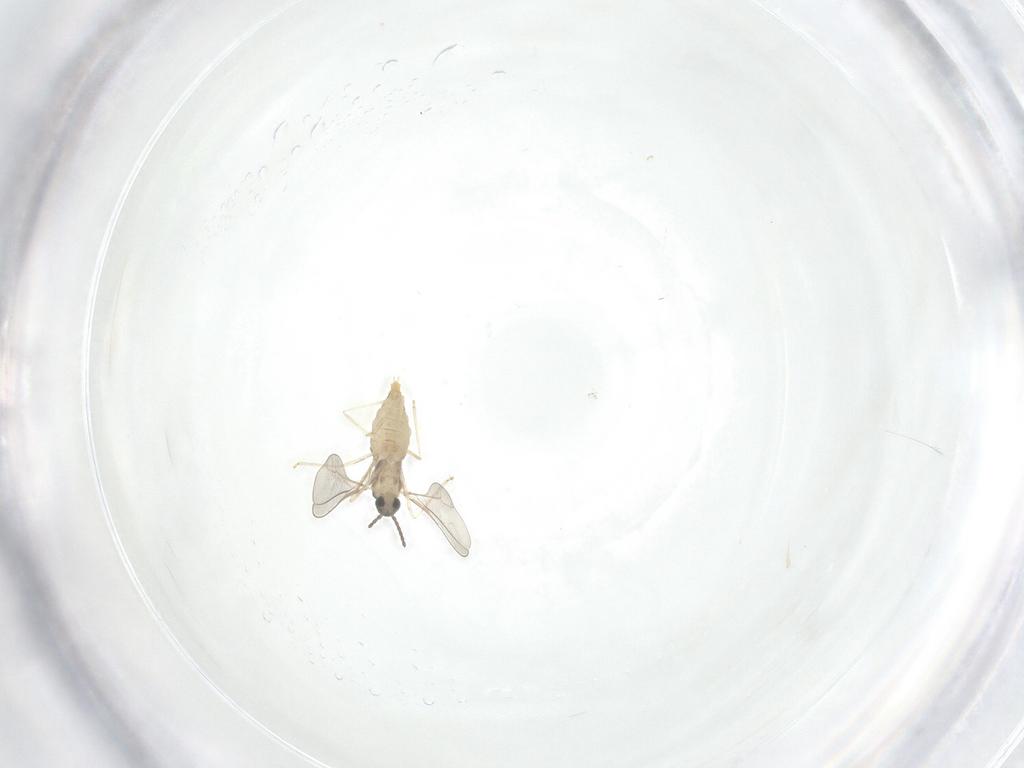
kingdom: Animalia
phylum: Arthropoda
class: Insecta
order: Diptera
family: Cecidomyiidae
